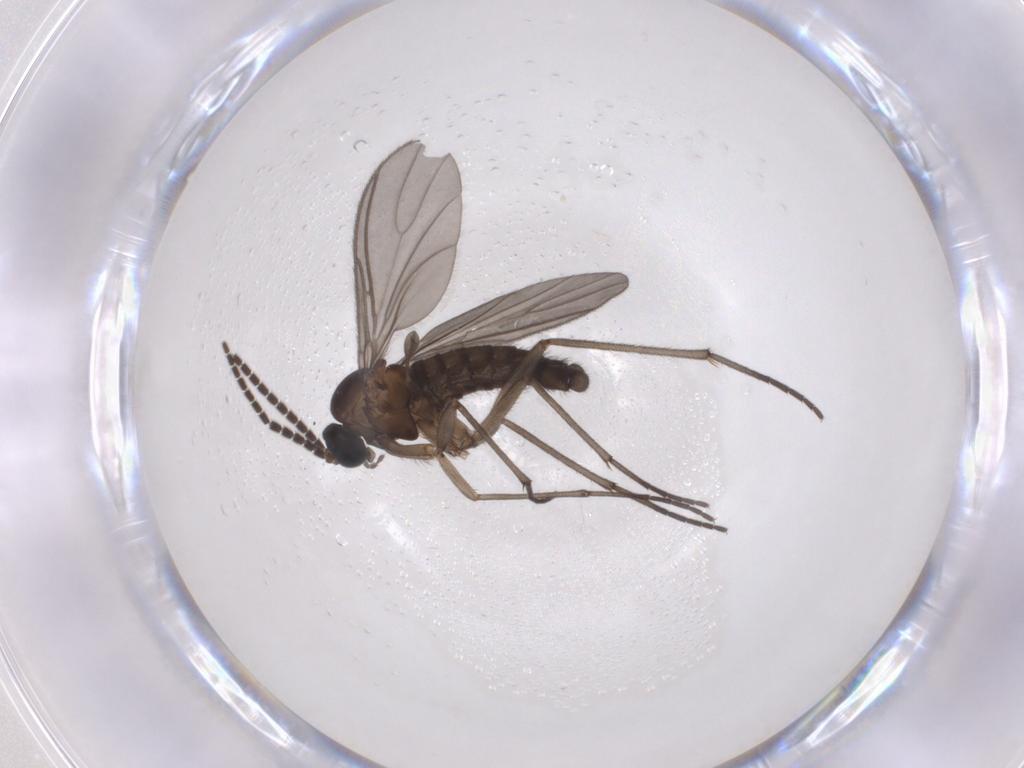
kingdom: Animalia
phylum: Arthropoda
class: Insecta
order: Diptera
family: Sciaridae
